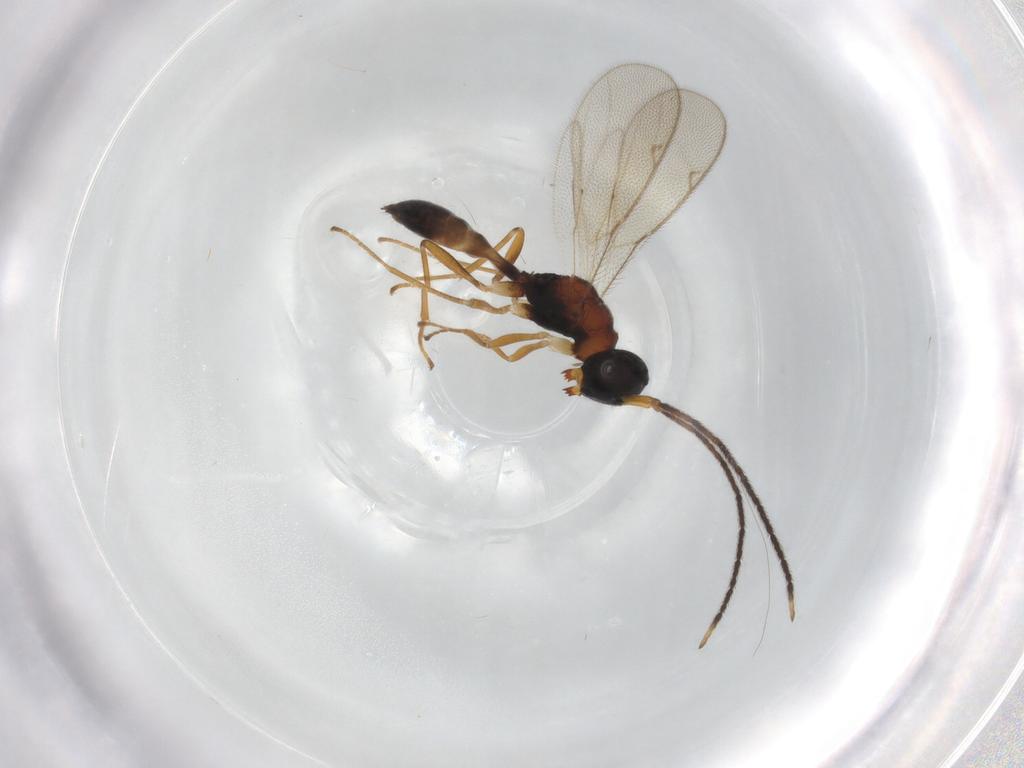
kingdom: Animalia
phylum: Arthropoda
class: Insecta
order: Hymenoptera
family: Pteromalidae
